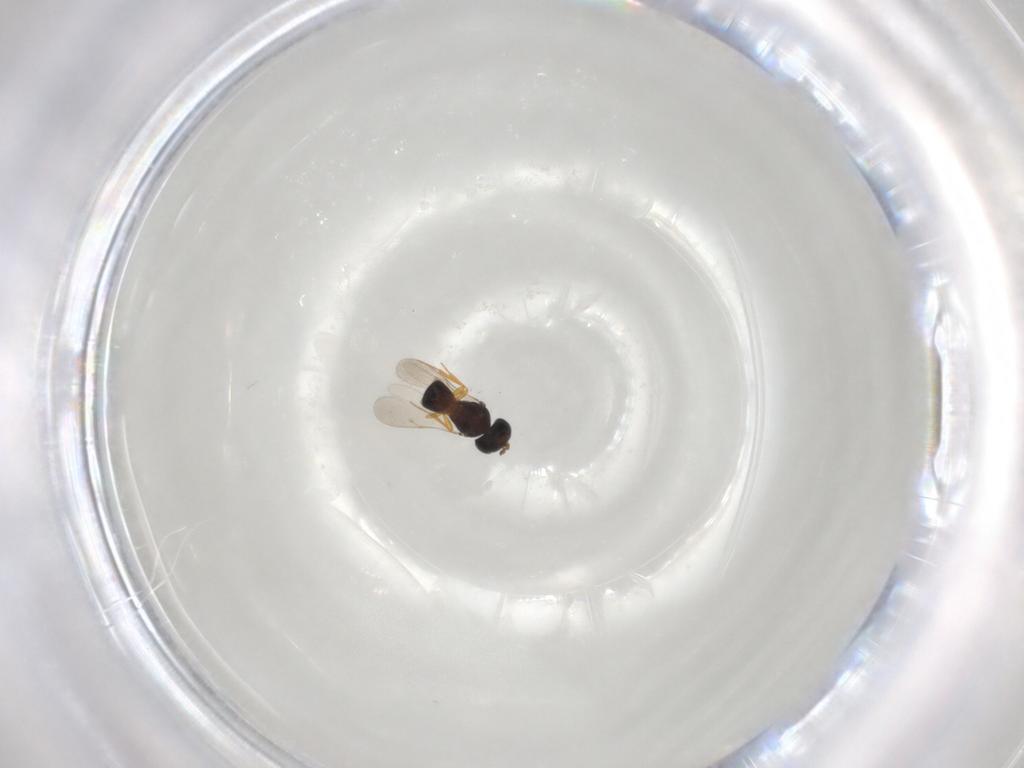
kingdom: Animalia
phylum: Arthropoda
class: Insecta
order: Hymenoptera
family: Scelionidae
